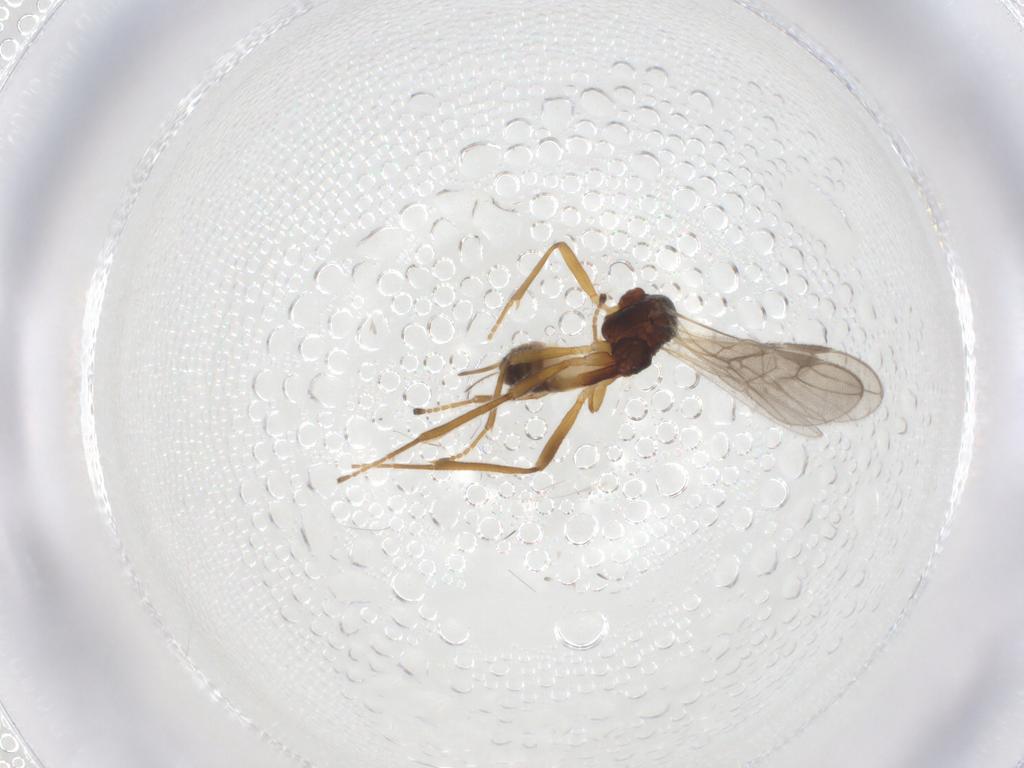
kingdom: Animalia
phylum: Arthropoda
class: Insecta
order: Hymenoptera
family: Braconidae
